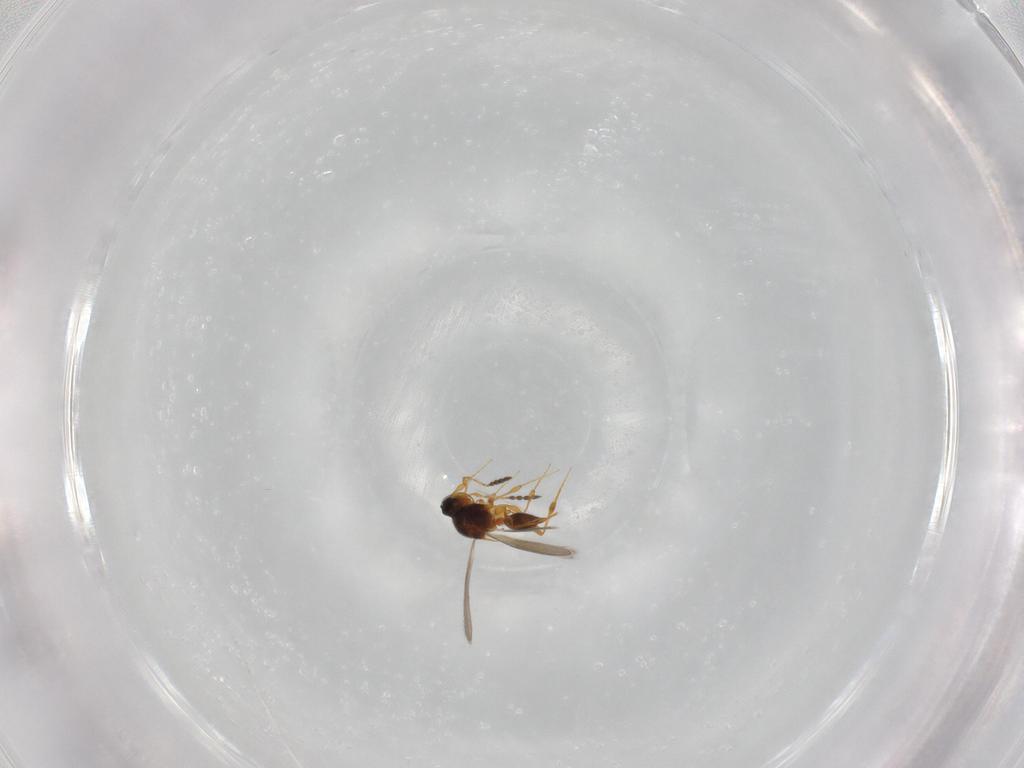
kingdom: Animalia
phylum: Arthropoda
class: Insecta
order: Hymenoptera
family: Platygastridae
